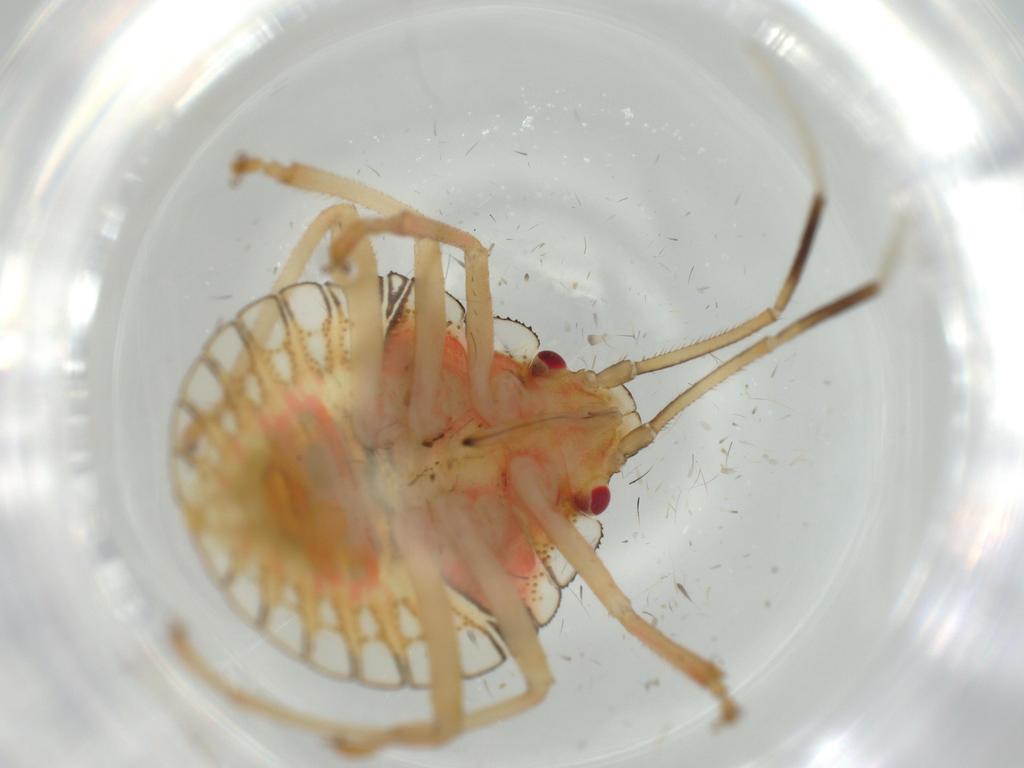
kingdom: Animalia
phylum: Arthropoda
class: Insecta
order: Hemiptera
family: Pentatomidae
